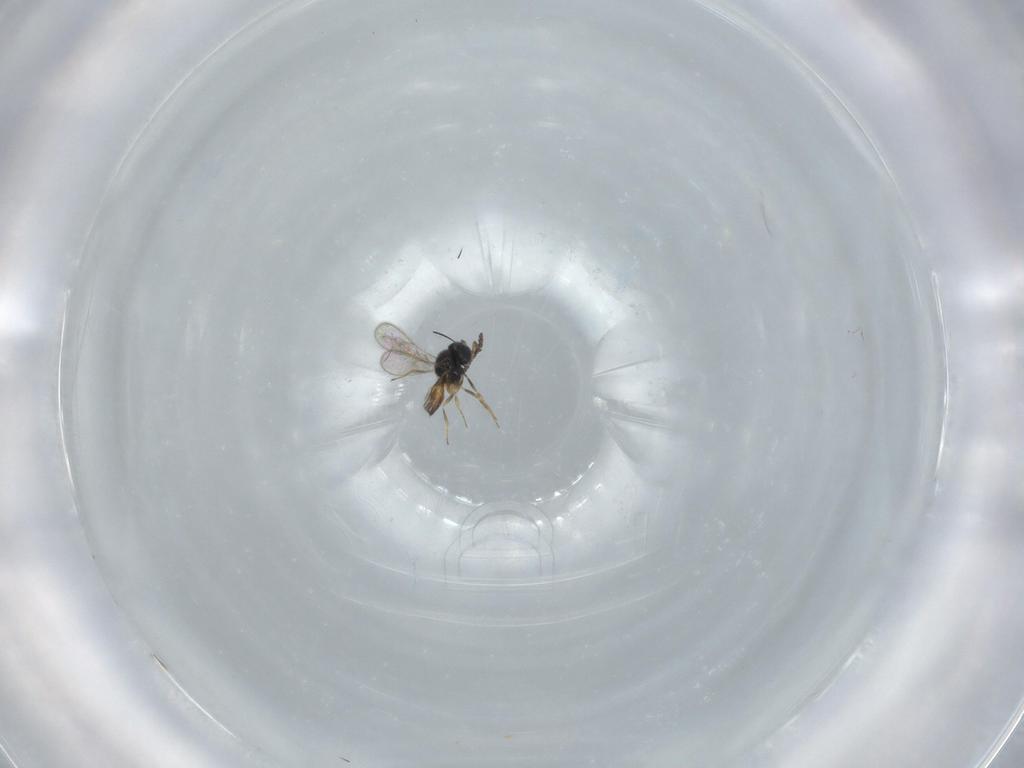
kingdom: Animalia
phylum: Arthropoda
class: Insecta
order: Hymenoptera
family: Scelionidae
